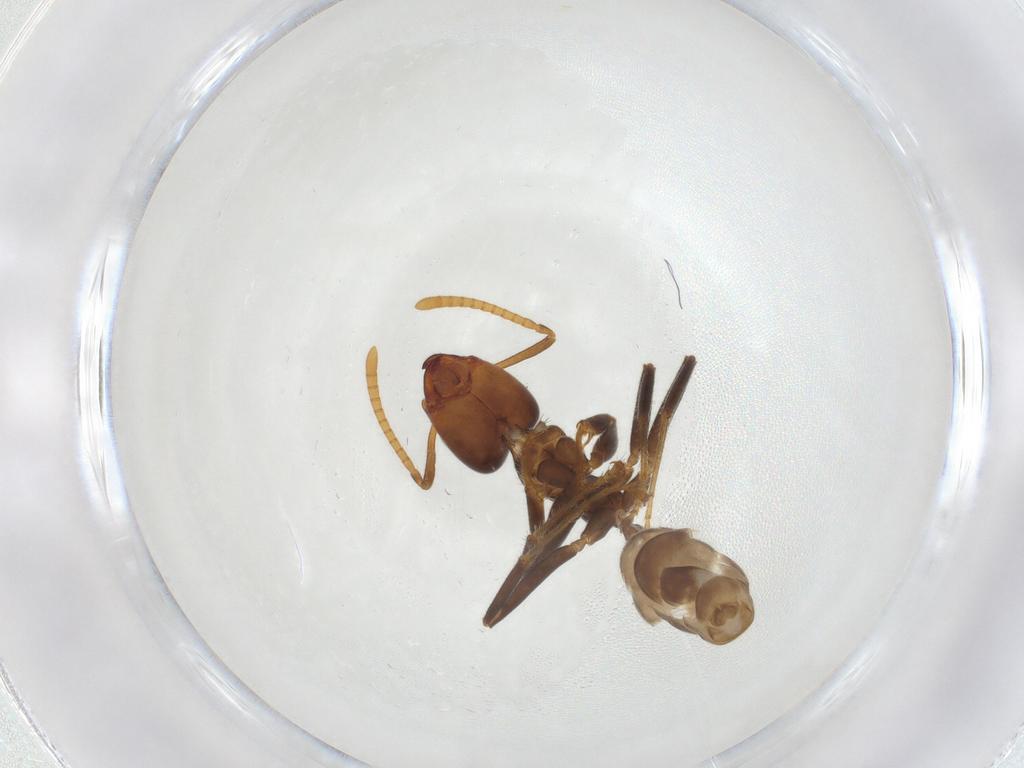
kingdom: Animalia
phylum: Arthropoda
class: Insecta
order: Hymenoptera
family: Formicidae
